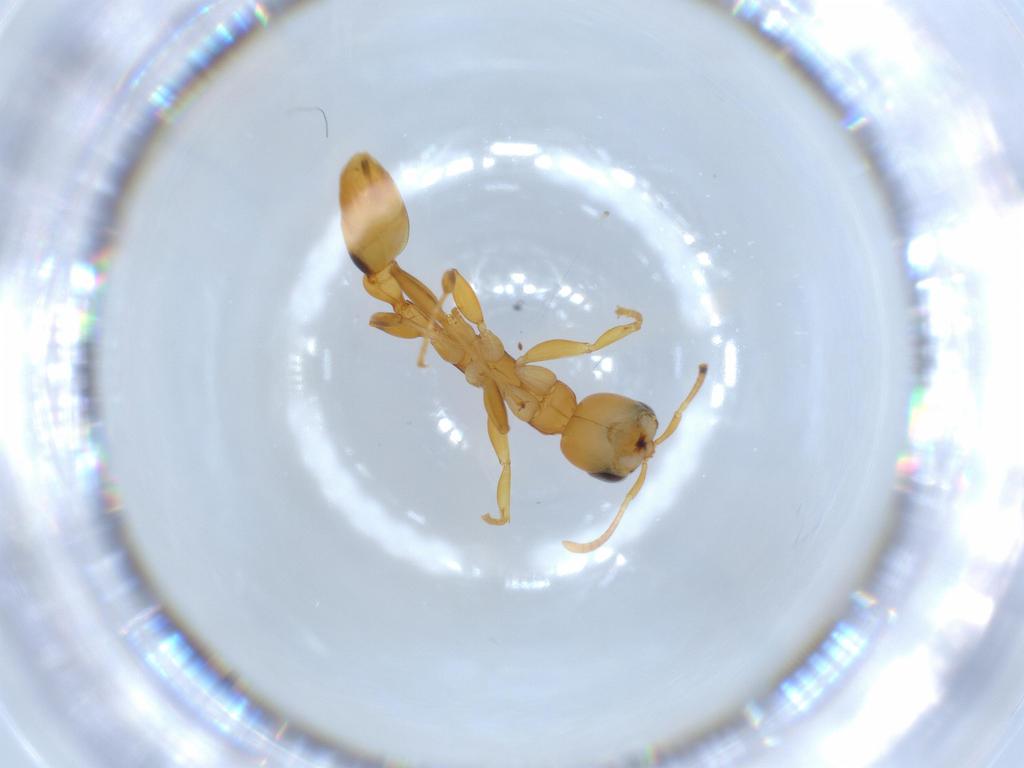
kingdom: Animalia
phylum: Arthropoda
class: Insecta
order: Hymenoptera
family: Formicidae
